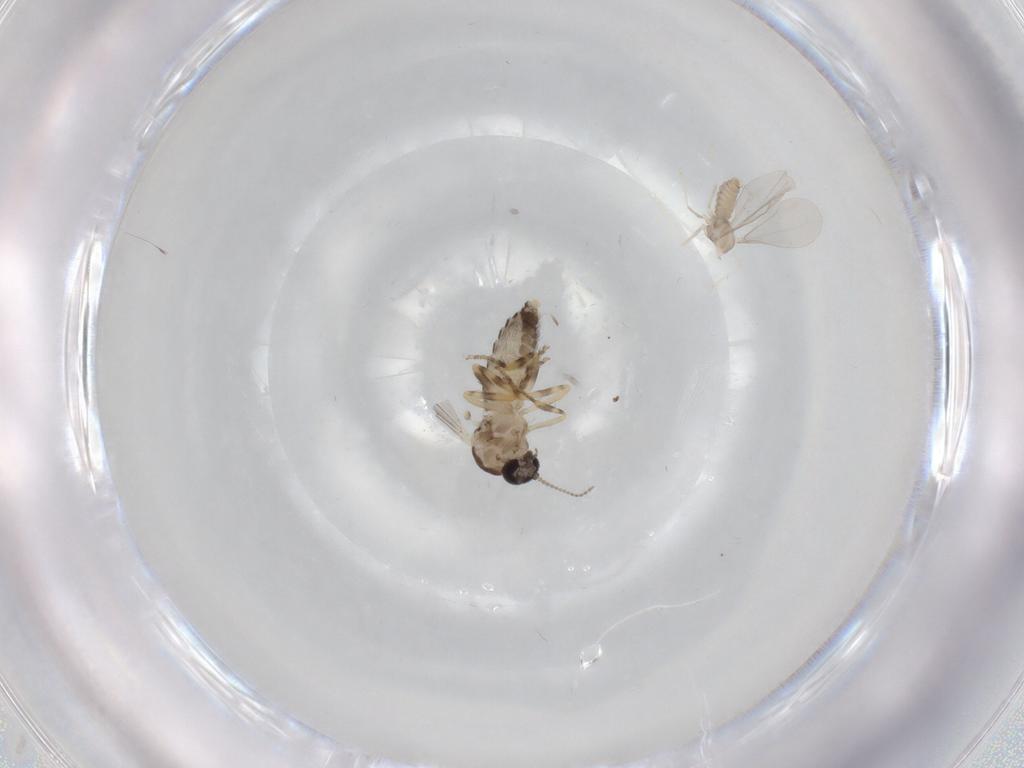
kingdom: Animalia
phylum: Arthropoda
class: Insecta
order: Diptera
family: Cecidomyiidae
